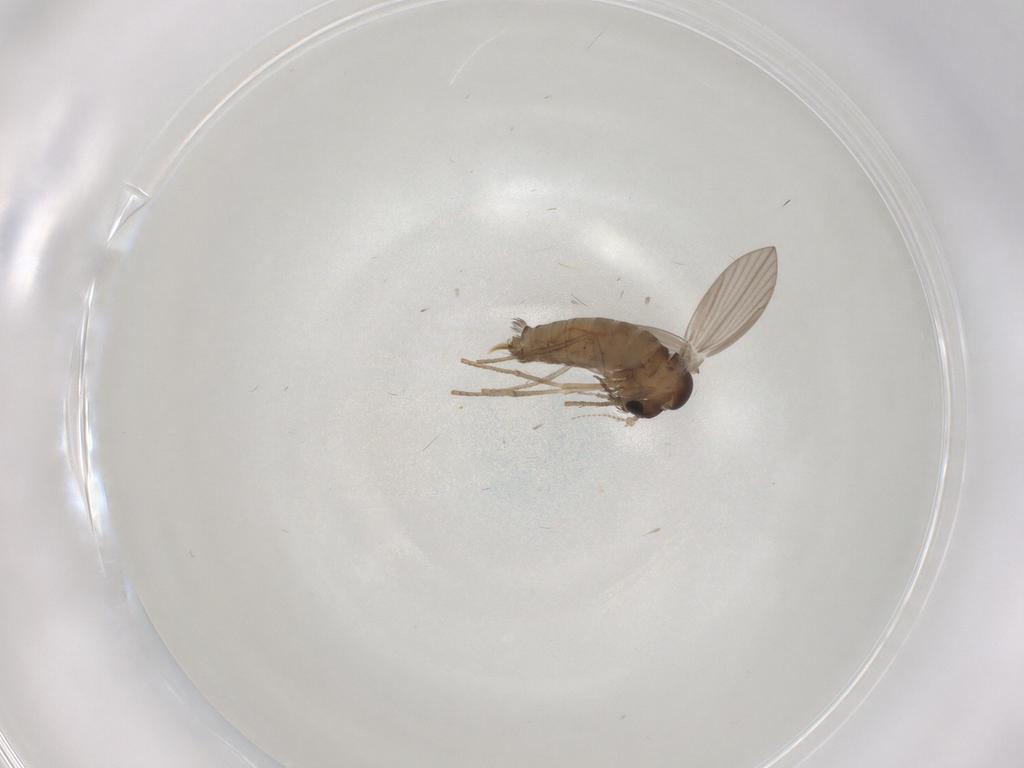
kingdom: Animalia
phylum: Arthropoda
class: Insecta
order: Diptera
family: Psychodidae
